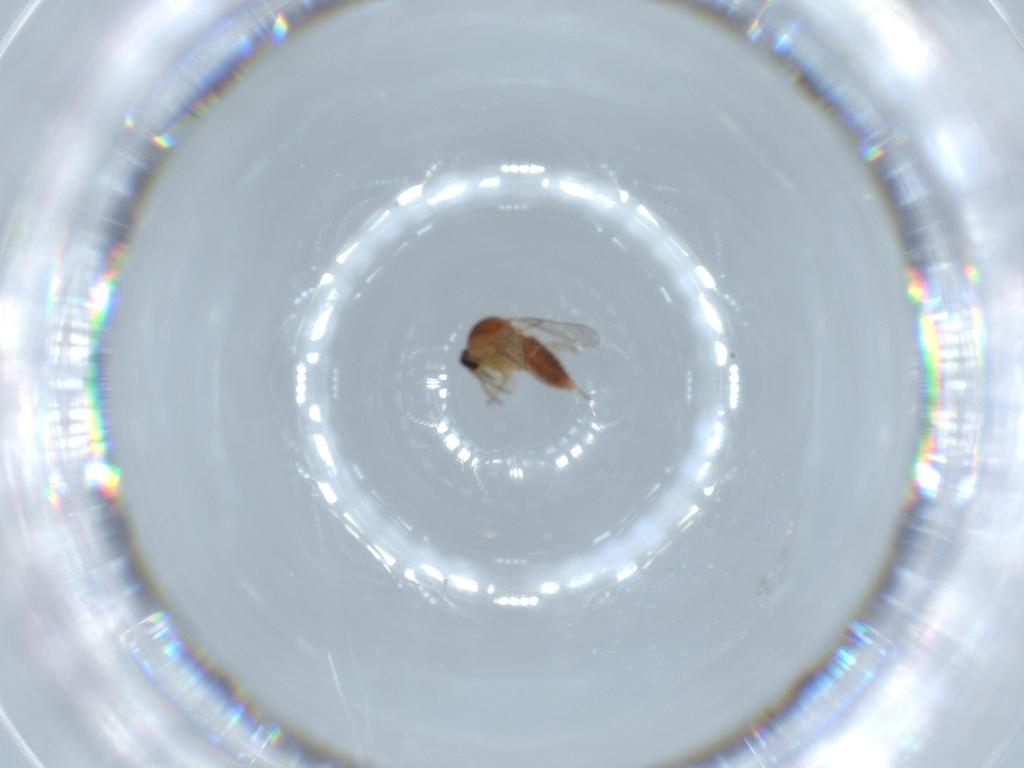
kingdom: Animalia
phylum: Arthropoda
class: Insecta
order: Diptera
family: Ceratopogonidae
